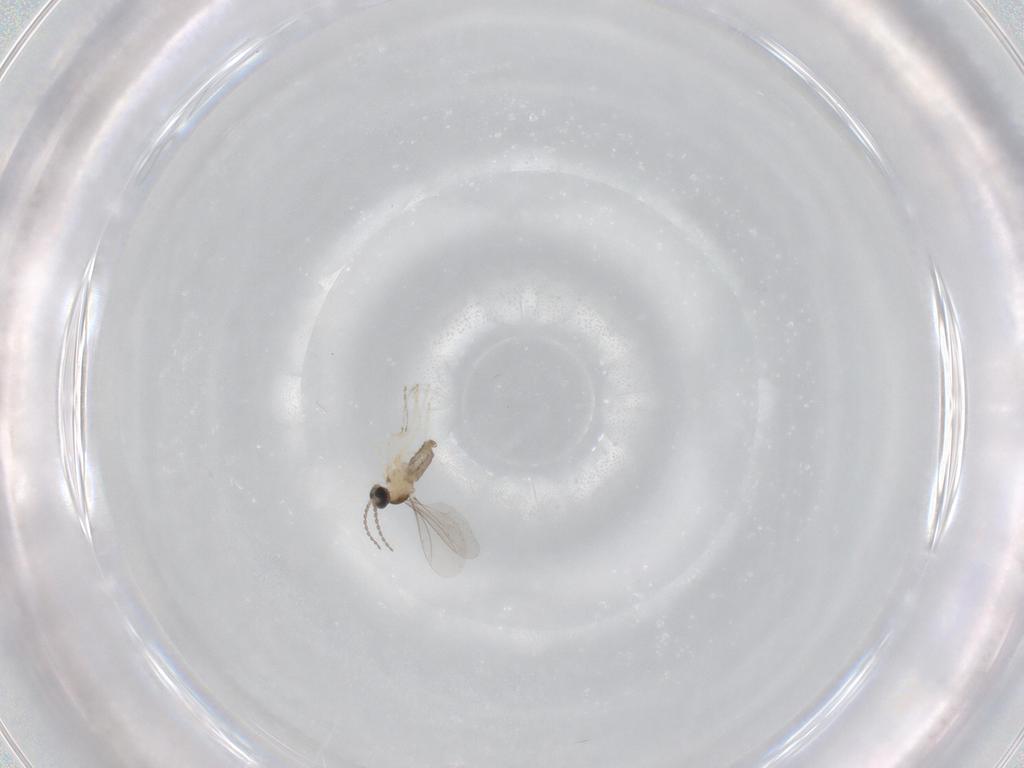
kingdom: Animalia
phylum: Arthropoda
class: Insecta
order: Diptera
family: Cecidomyiidae
